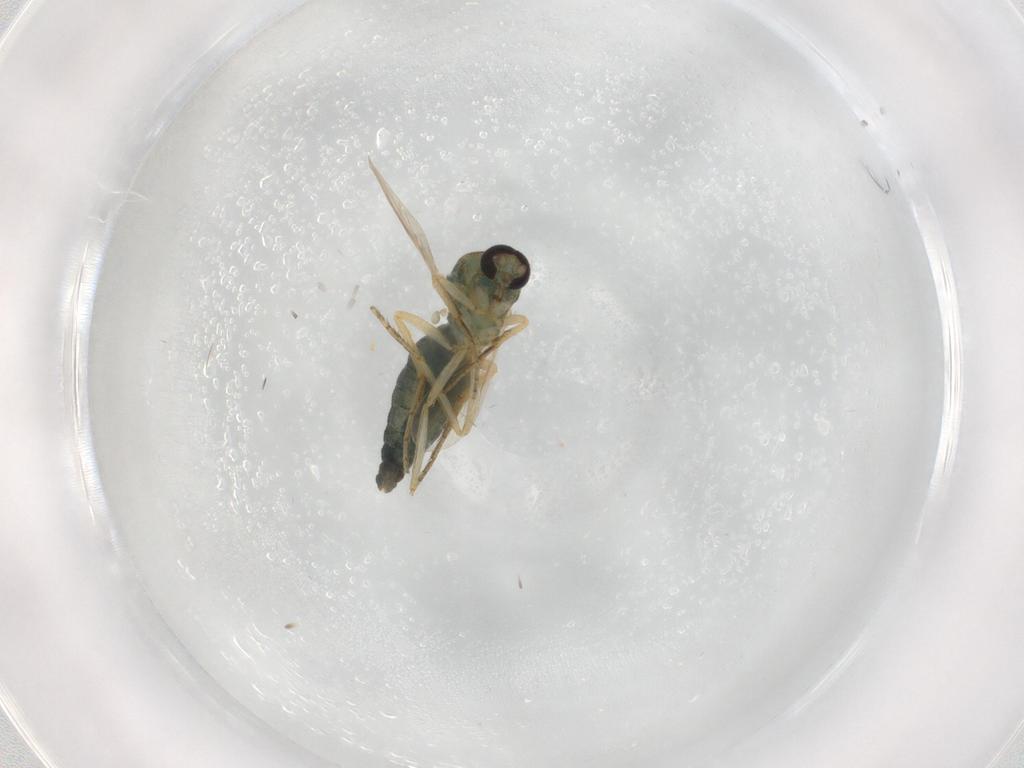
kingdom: Animalia
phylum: Arthropoda
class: Insecta
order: Diptera
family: Ceratopogonidae
